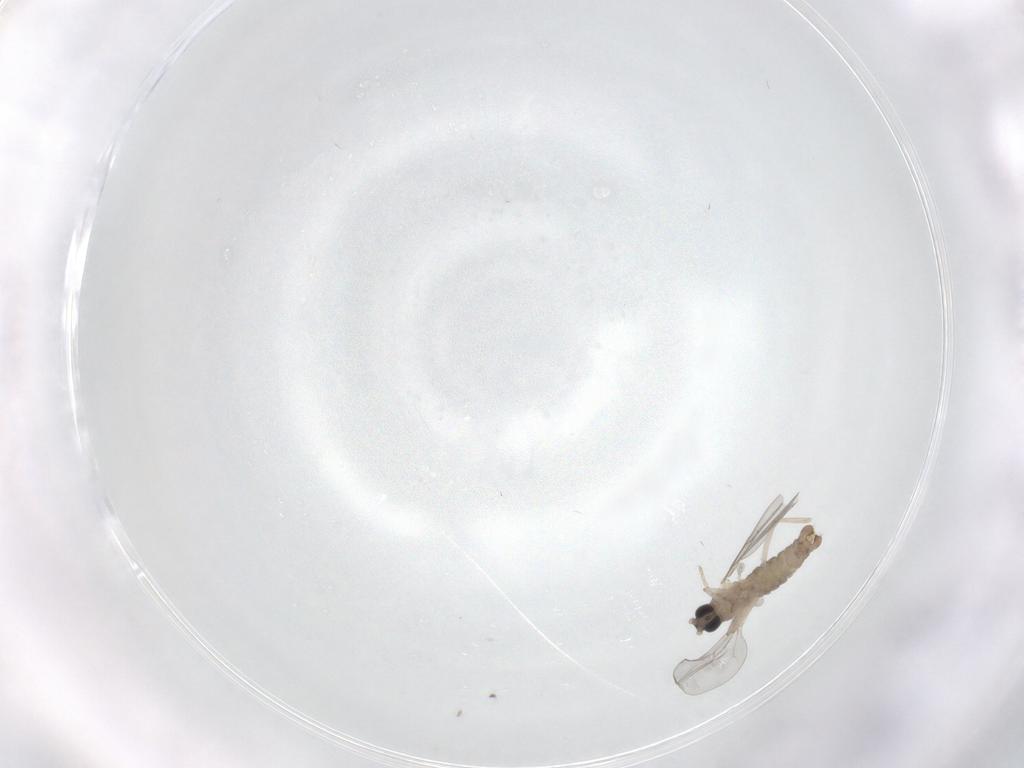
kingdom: Animalia
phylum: Arthropoda
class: Insecta
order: Diptera
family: Cecidomyiidae
